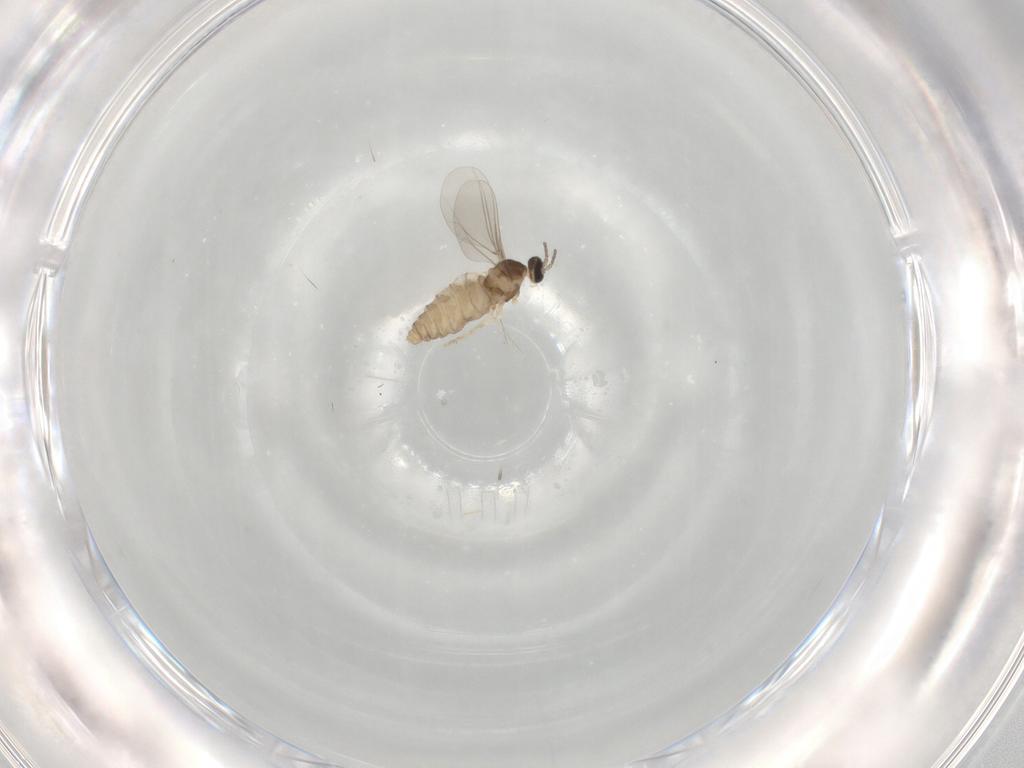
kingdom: Animalia
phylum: Arthropoda
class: Insecta
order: Diptera
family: Cecidomyiidae
